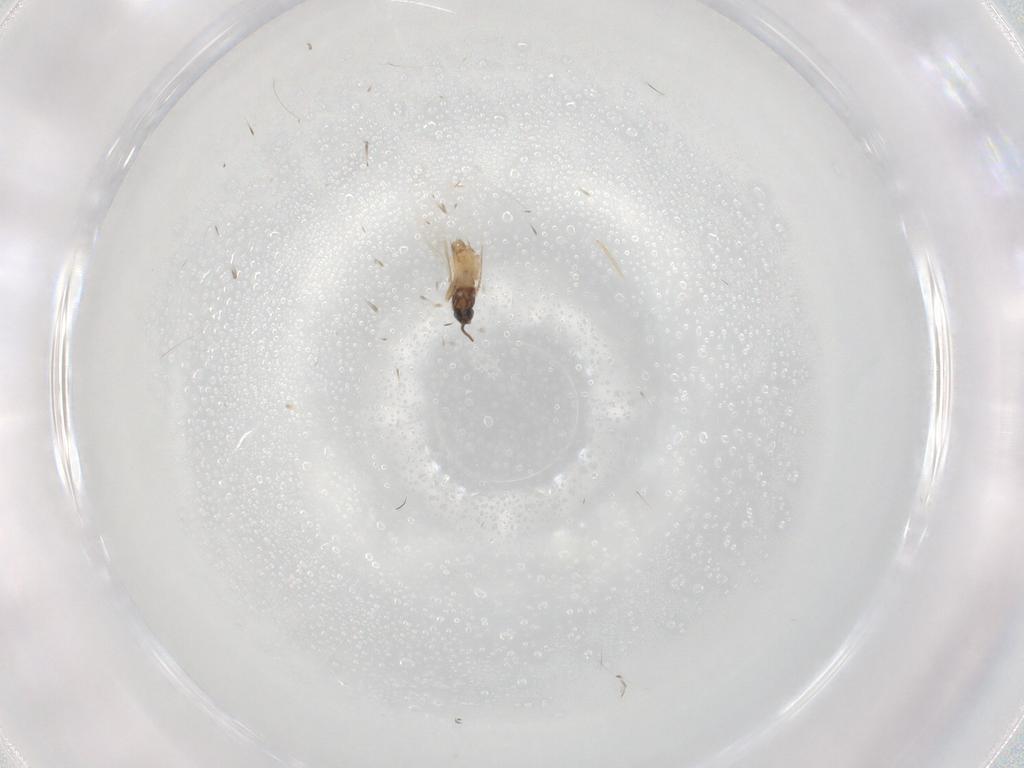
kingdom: Animalia
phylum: Arthropoda
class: Insecta
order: Diptera
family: Cecidomyiidae
